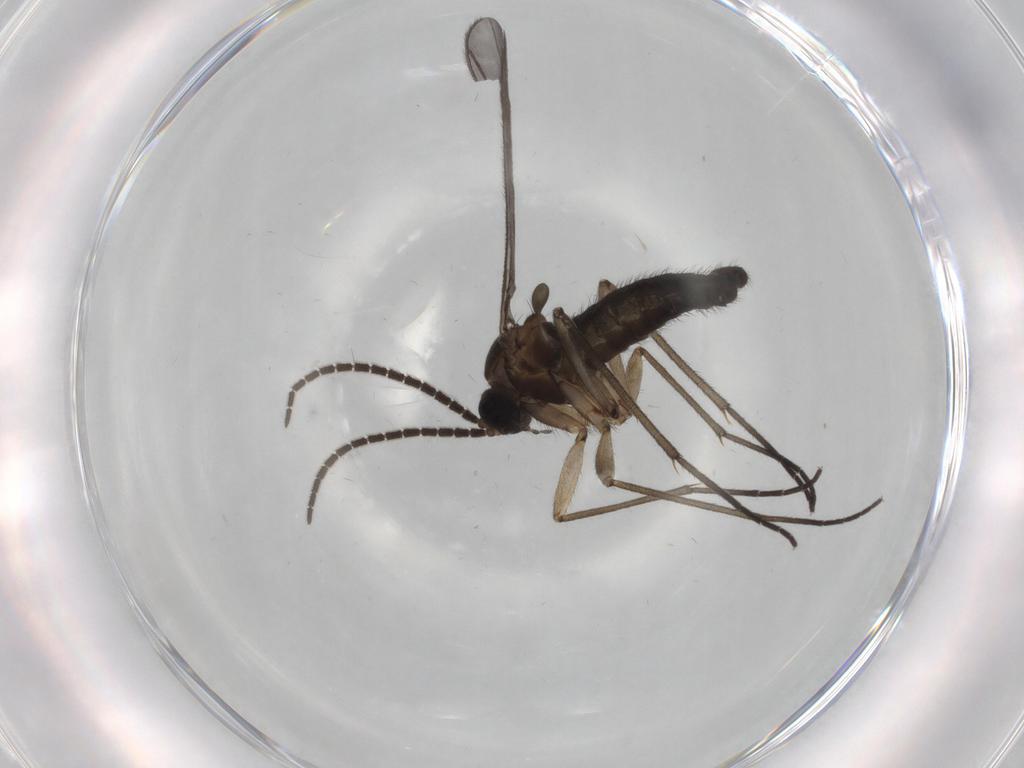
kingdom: Animalia
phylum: Arthropoda
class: Insecta
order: Diptera
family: Sciaridae
